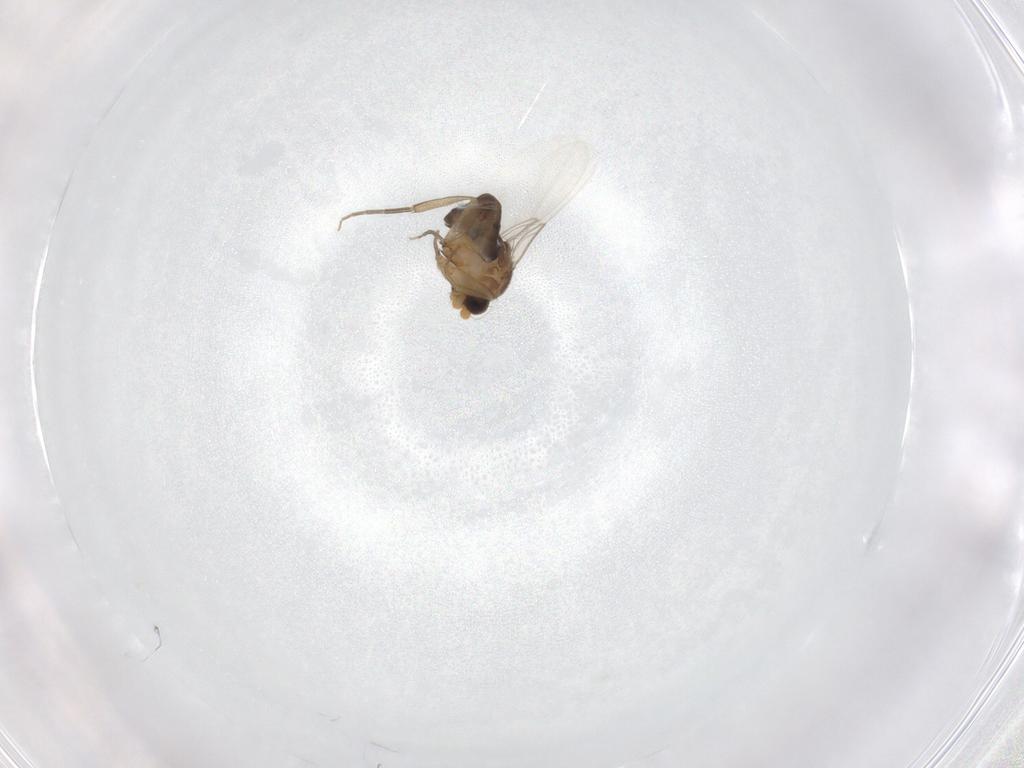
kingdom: Animalia
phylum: Arthropoda
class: Insecta
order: Diptera
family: Phoridae
